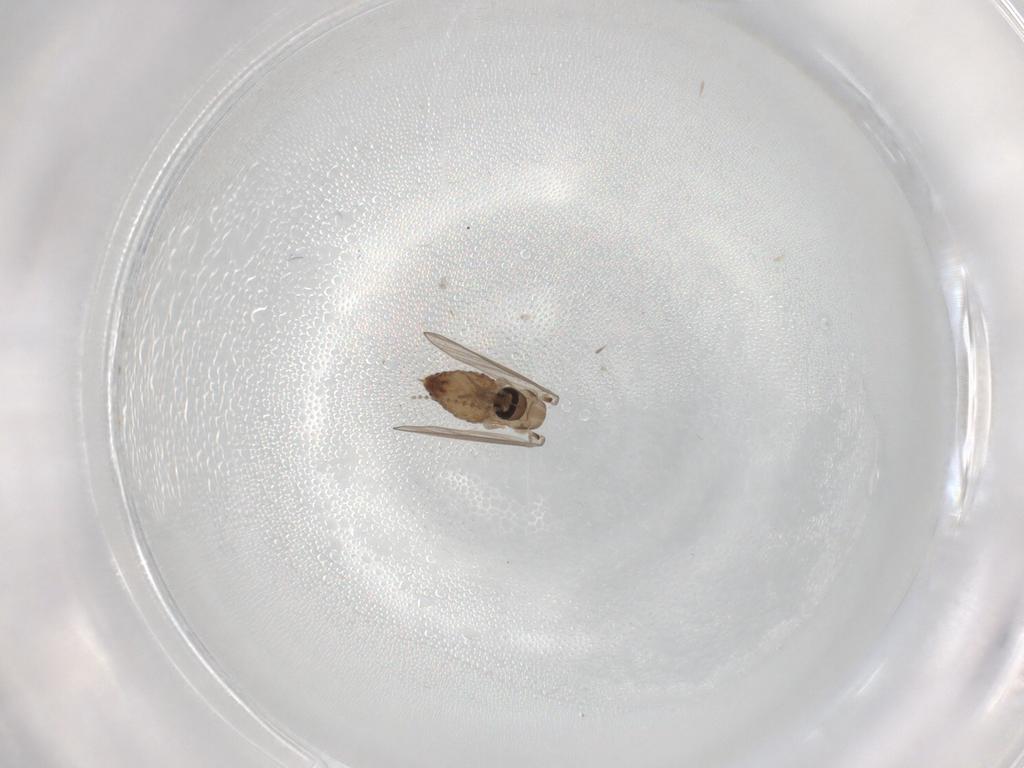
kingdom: Animalia
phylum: Arthropoda
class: Insecta
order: Diptera
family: Psychodidae
